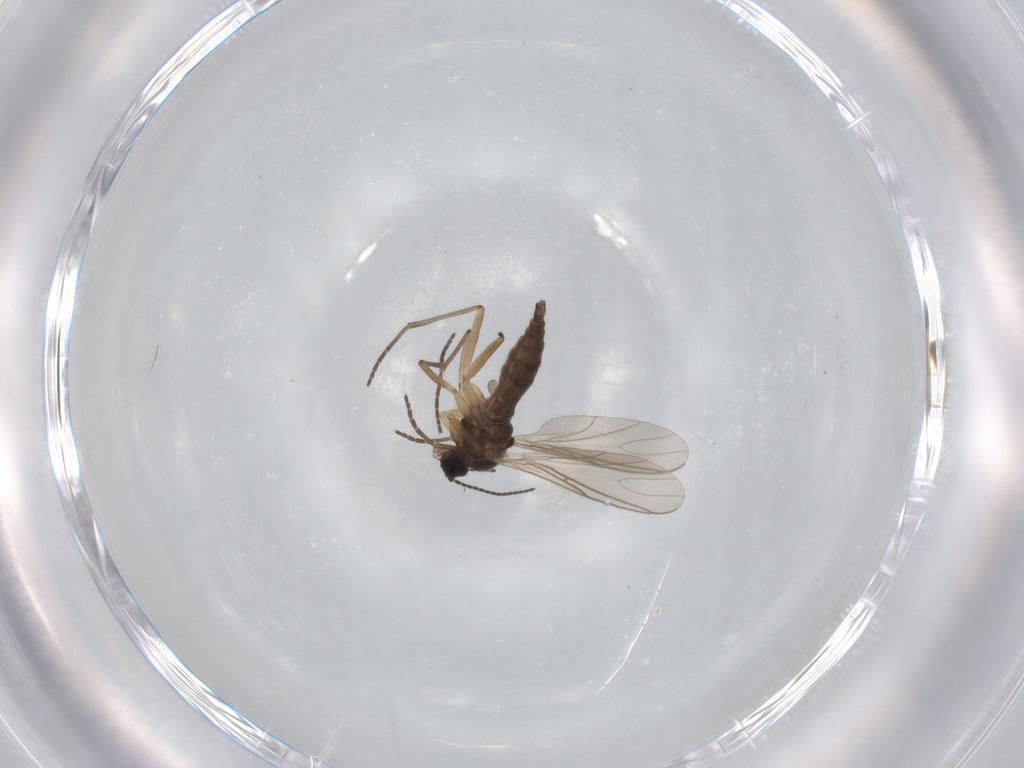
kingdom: Animalia
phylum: Arthropoda
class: Insecta
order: Diptera
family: Sciaridae
